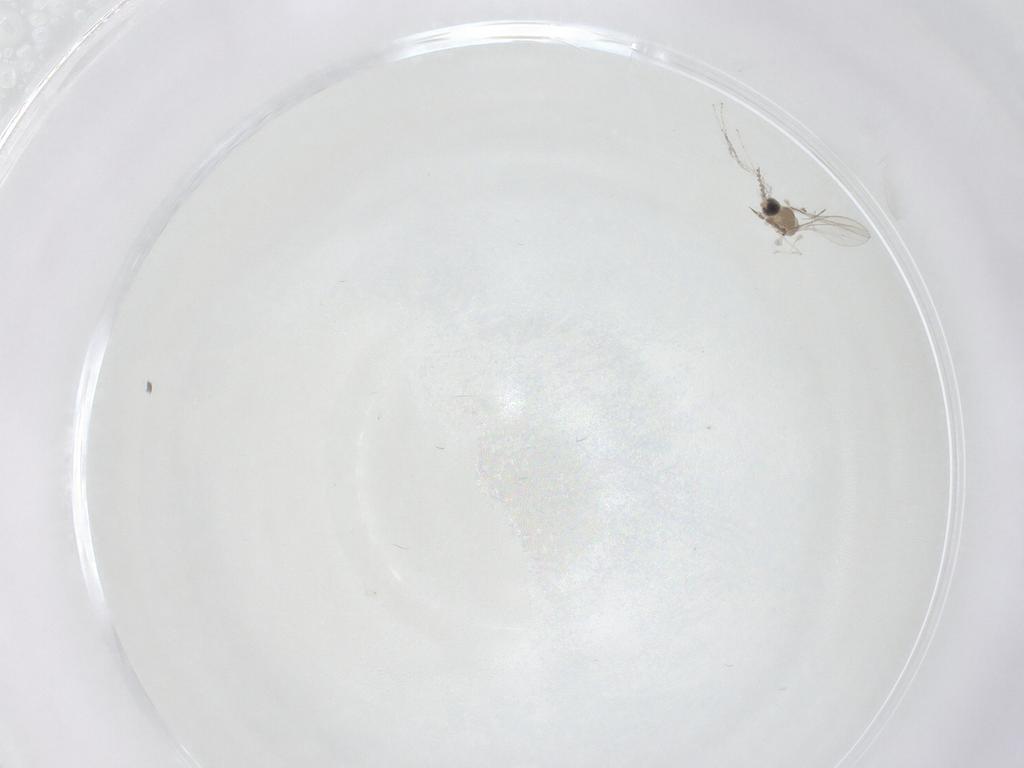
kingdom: Animalia
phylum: Arthropoda
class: Insecta
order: Diptera
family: Cecidomyiidae
